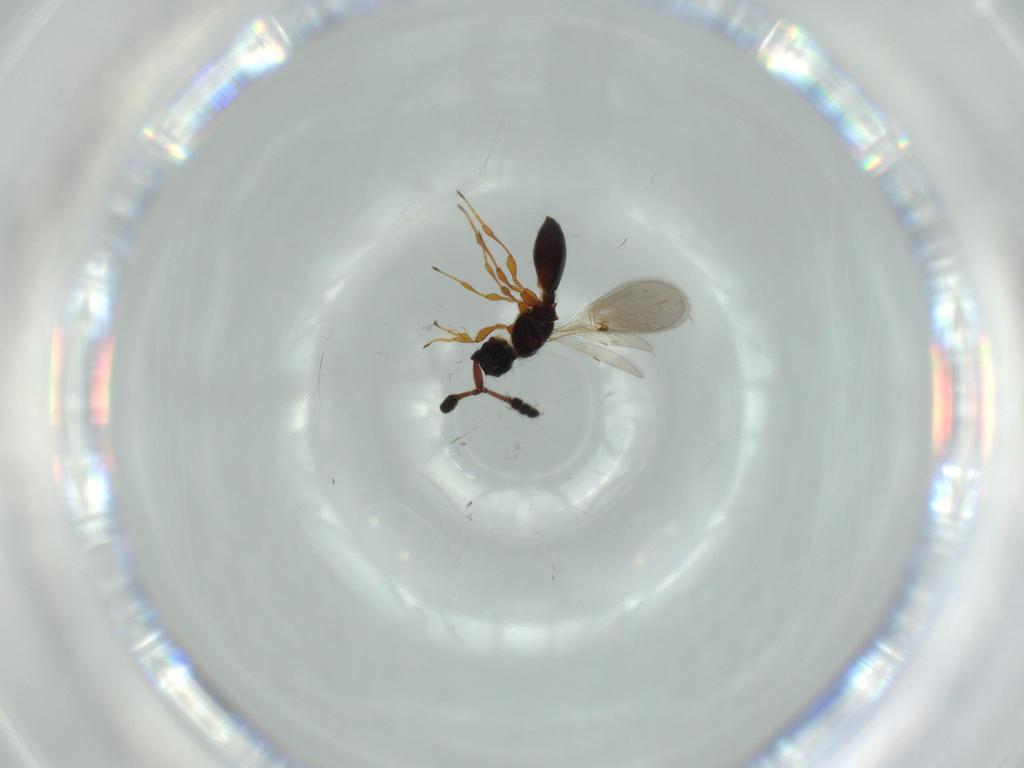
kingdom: Animalia
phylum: Arthropoda
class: Insecta
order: Hymenoptera
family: Diapriidae
